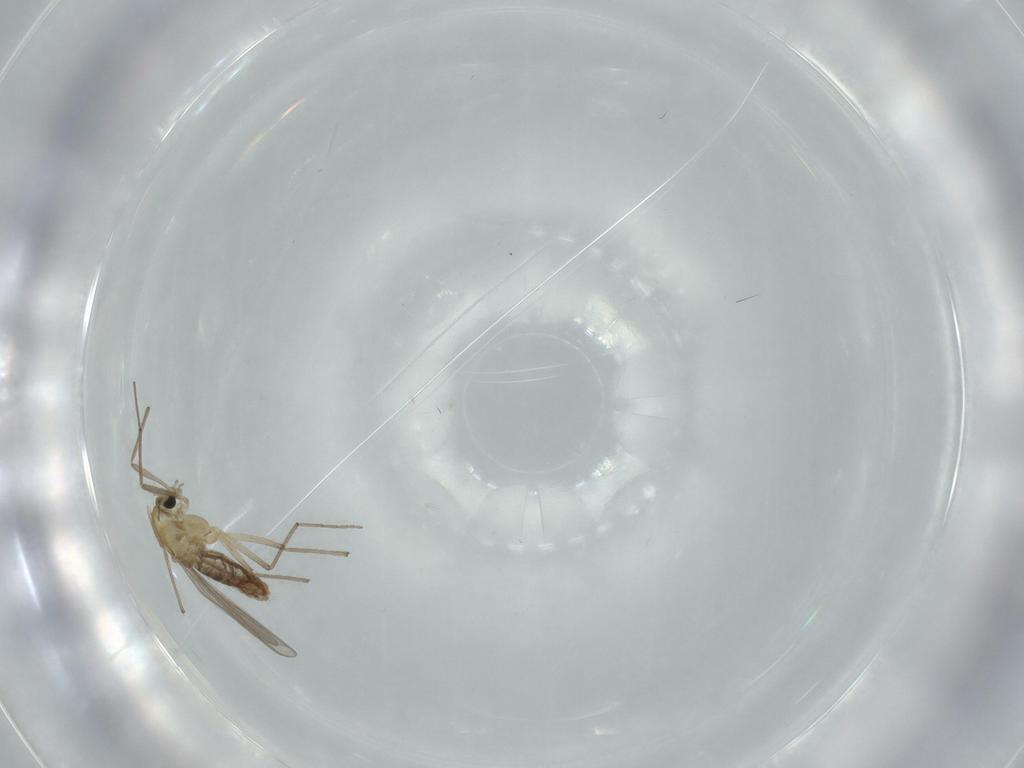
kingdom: Animalia
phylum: Arthropoda
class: Insecta
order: Diptera
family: Chironomidae
